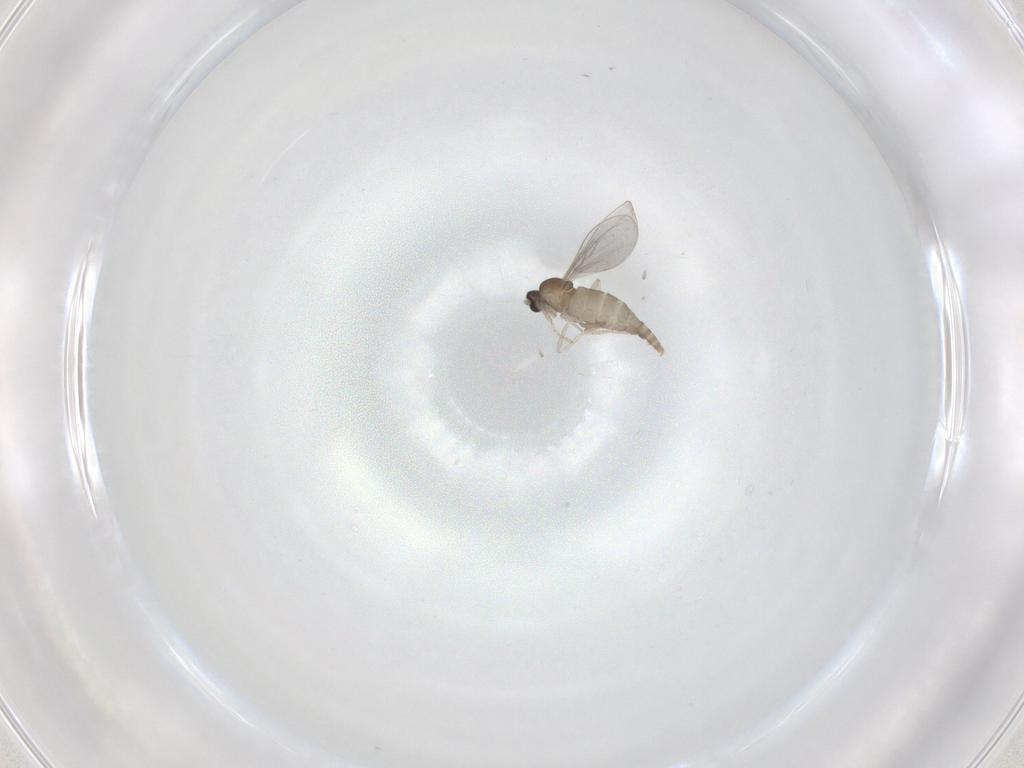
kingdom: Animalia
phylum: Arthropoda
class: Insecta
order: Diptera
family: Cecidomyiidae
